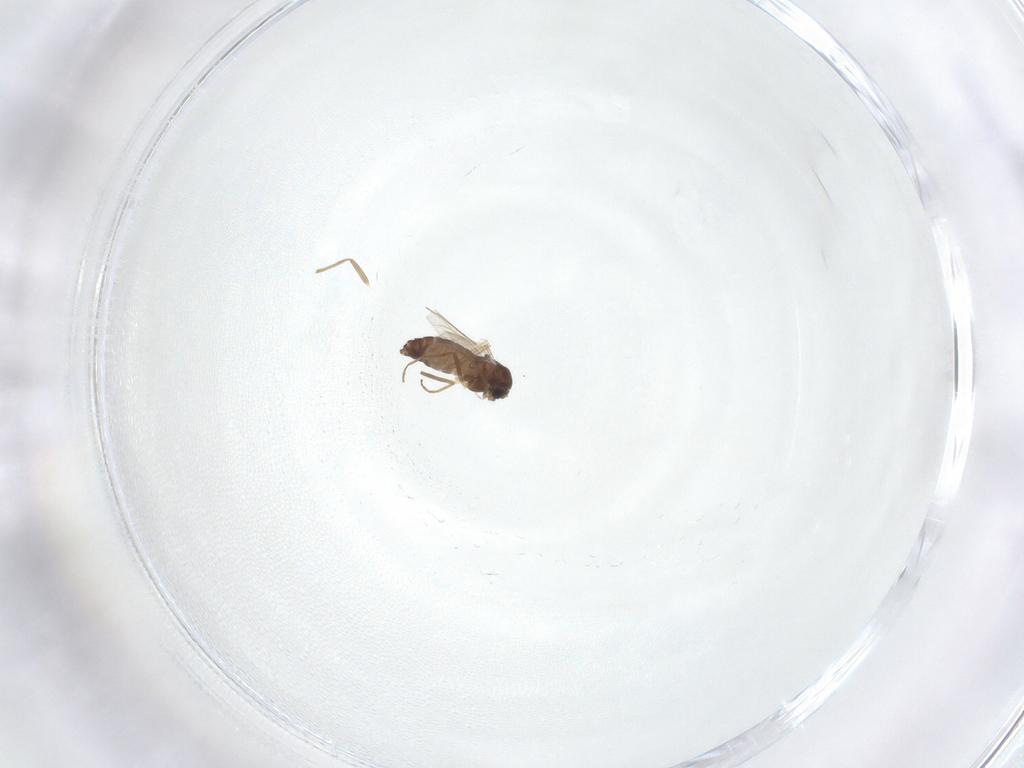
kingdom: Animalia
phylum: Arthropoda
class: Insecta
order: Diptera
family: Chironomidae
